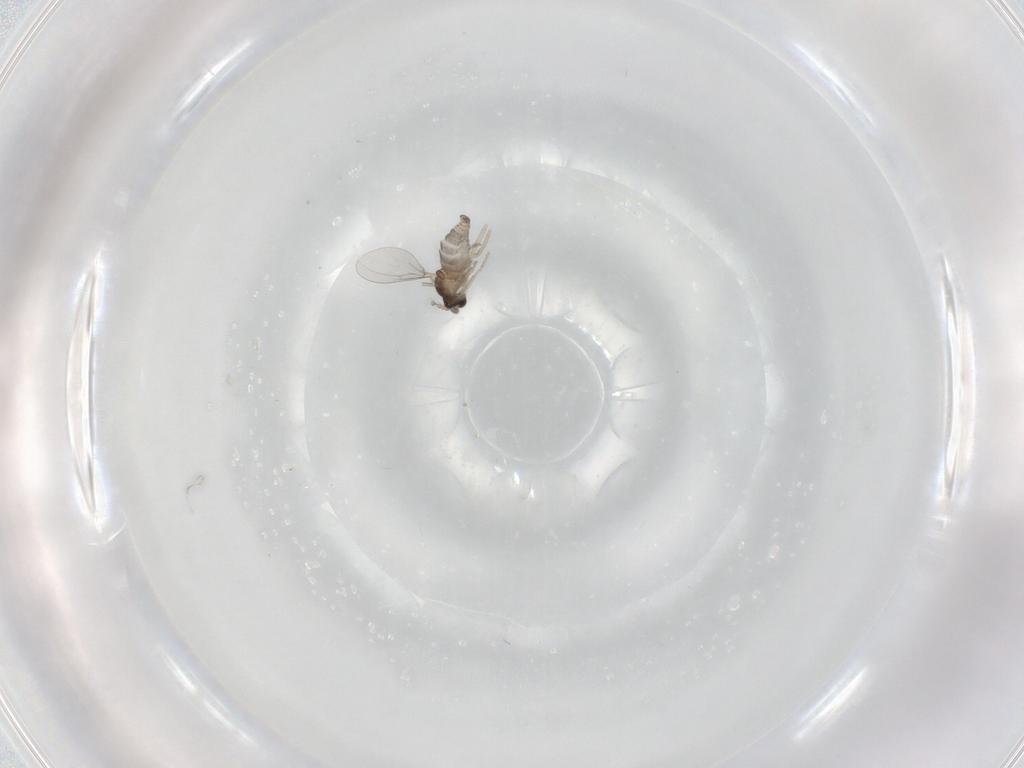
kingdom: Animalia
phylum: Arthropoda
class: Insecta
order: Diptera
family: Cecidomyiidae
